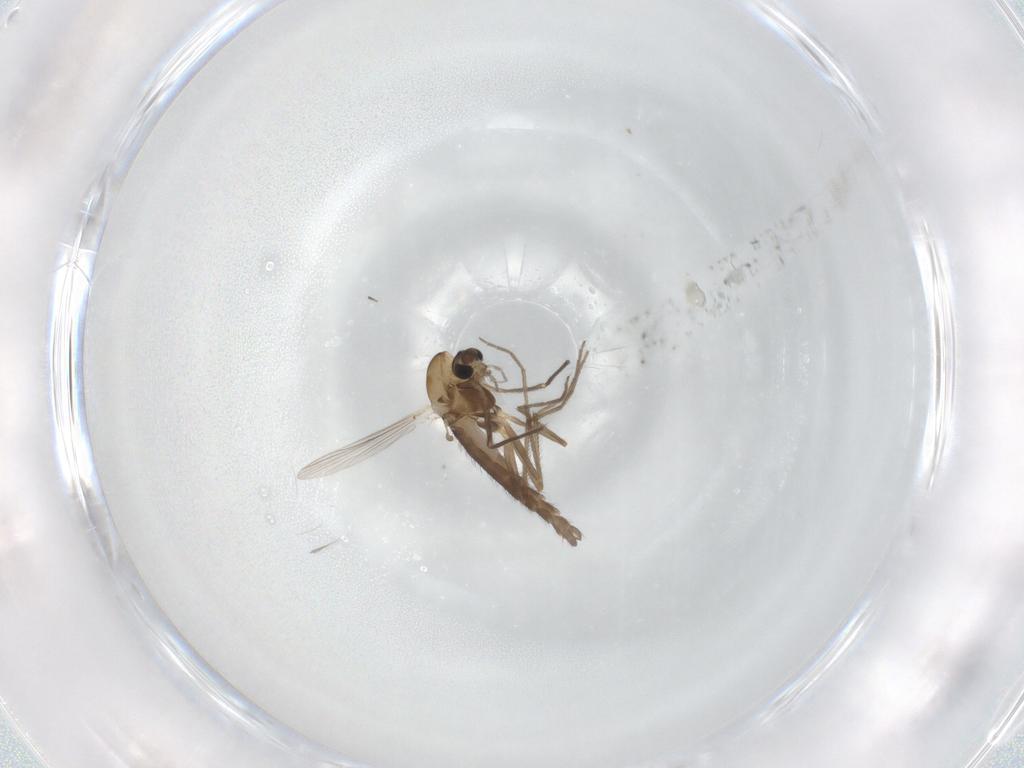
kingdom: Animalia
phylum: Arthropoda
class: Insecta
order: Diptera
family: Chironomidae
